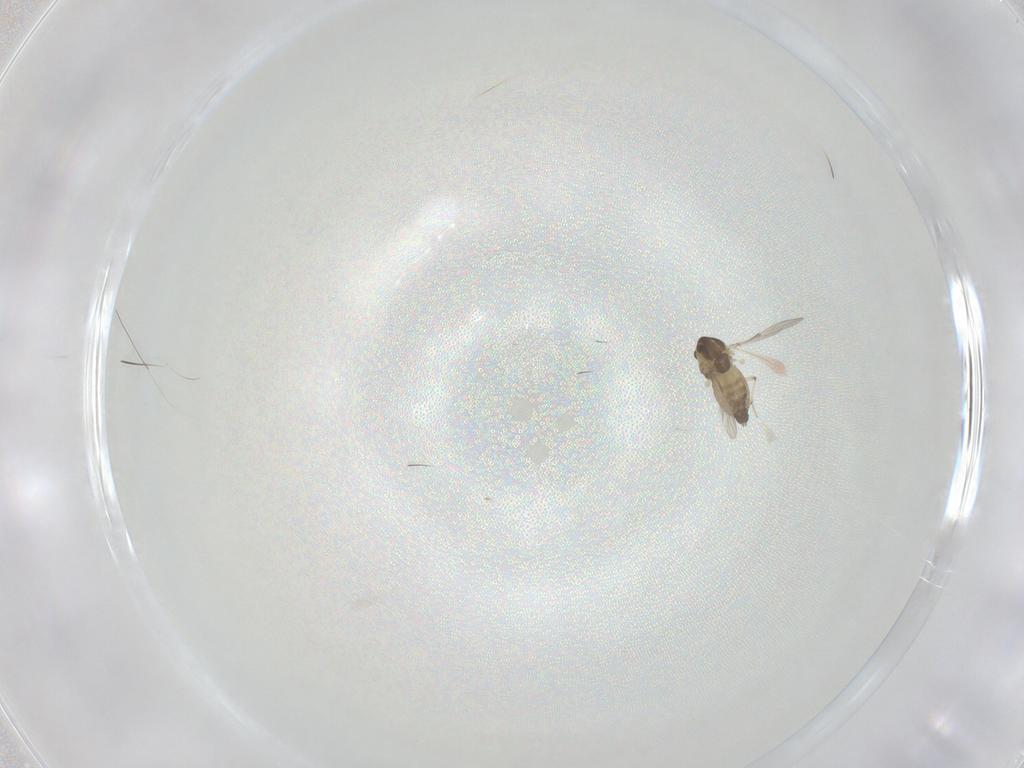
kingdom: Animalia
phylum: Arthropoda
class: Insecta
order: Diptera
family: Chironomidae
